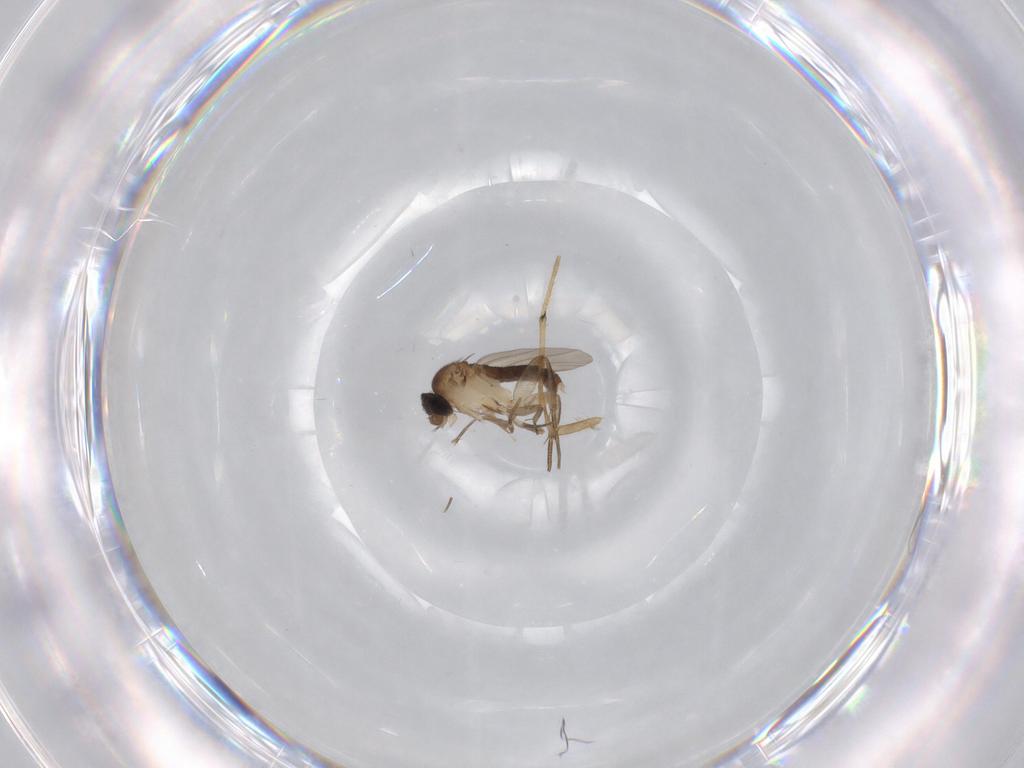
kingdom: Animalia
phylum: Arthropoda
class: Insecta
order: Diptera
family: Phoridae
